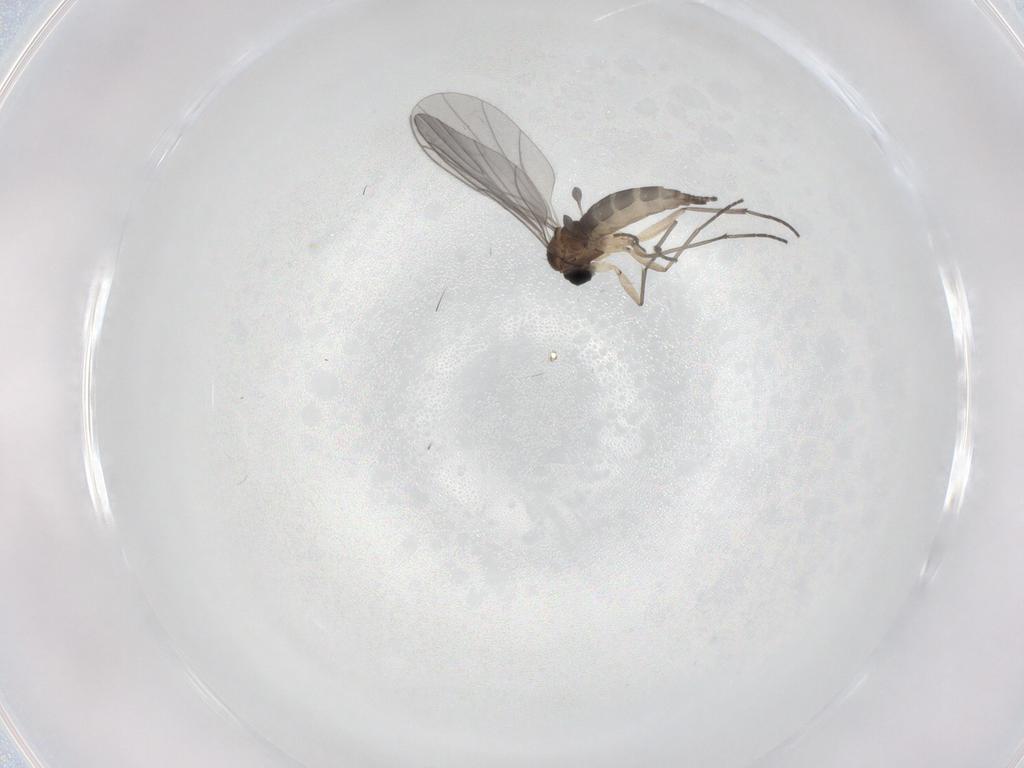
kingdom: Animalia
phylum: Arthropoda
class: Insecta
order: Diptera
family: Sciaridae
